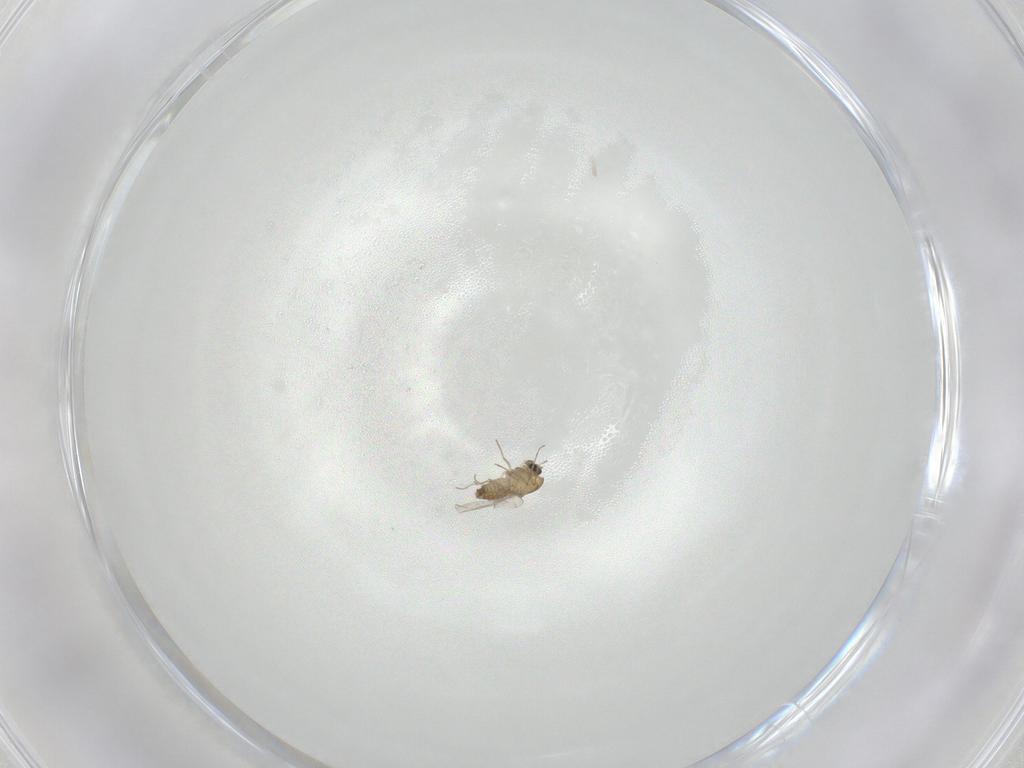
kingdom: Animalia
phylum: Arthropoda
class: Insecta
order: Diptera
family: Chironomidae
